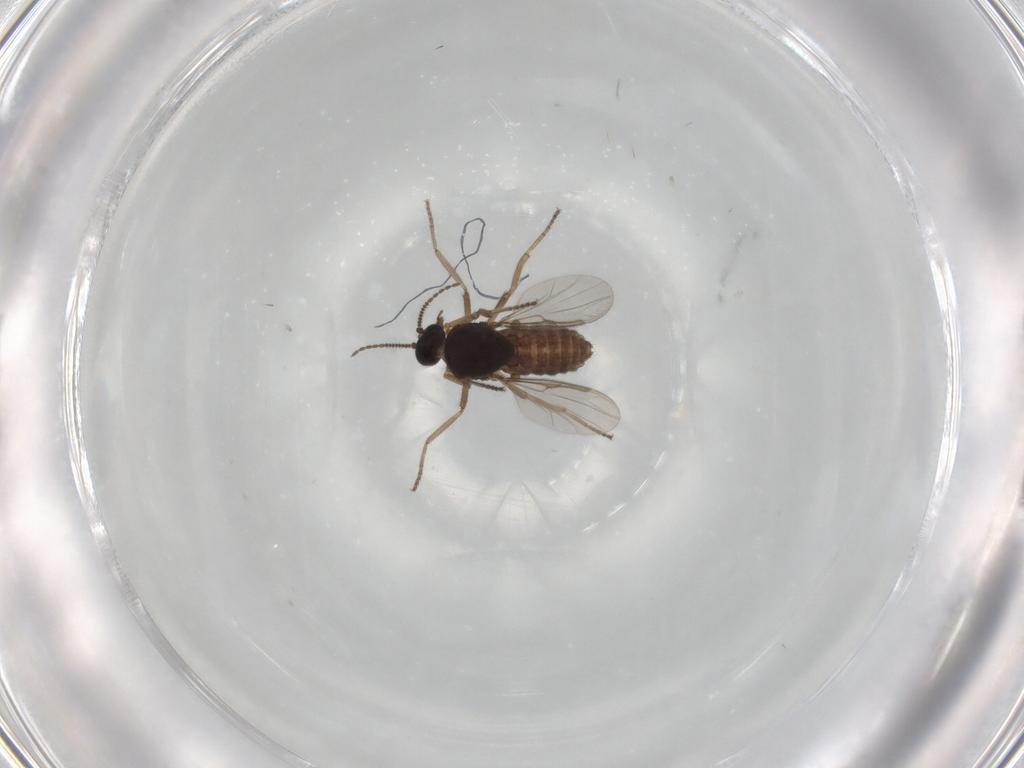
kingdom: Animalia
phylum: Arthropoda
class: Insecta
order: Diptera
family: Ceratopogonidae
